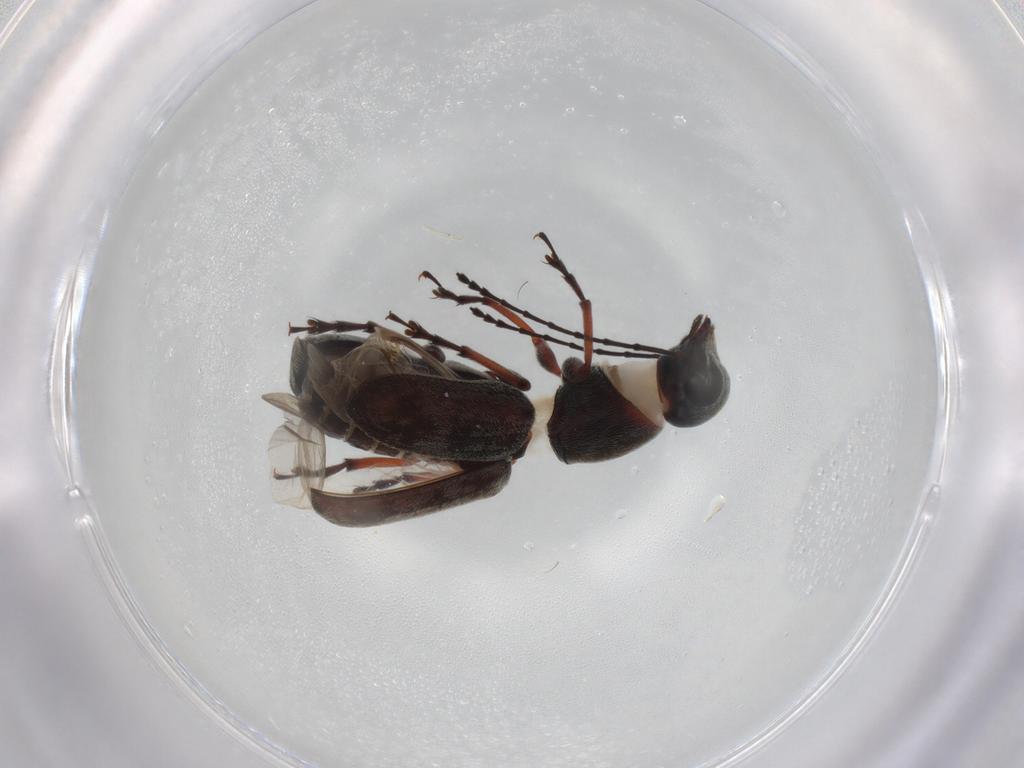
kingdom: Animalia
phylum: Arthropoda
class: Insecta
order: Coleoptera
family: Anthribidae
